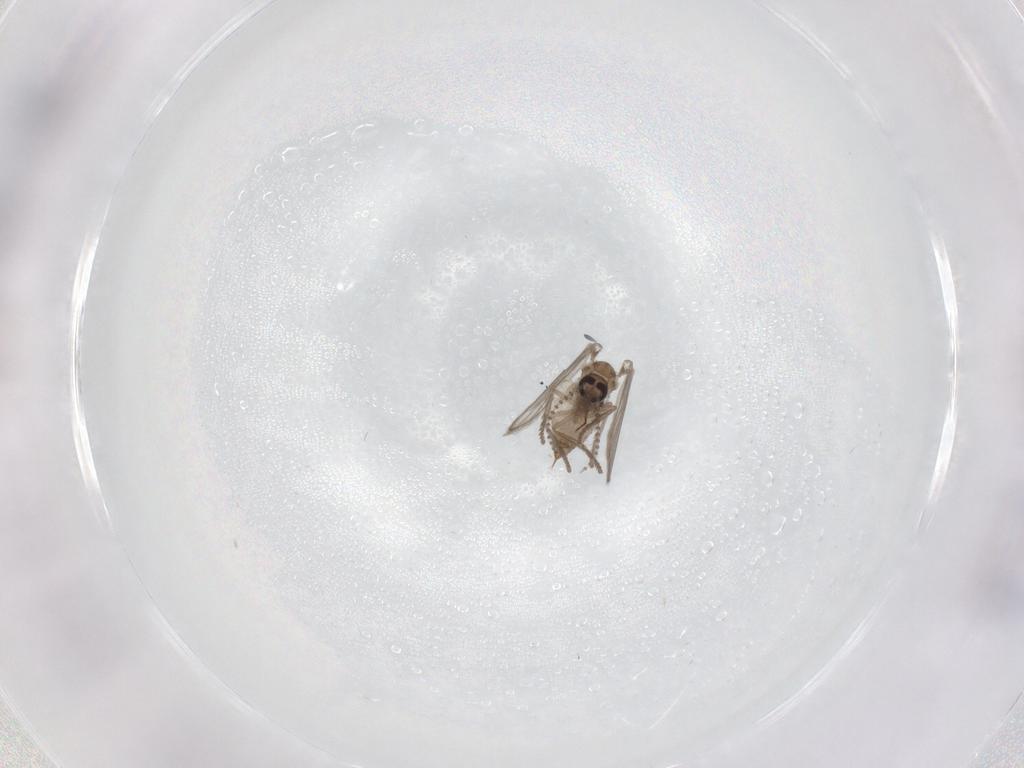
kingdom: Animalia
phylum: Arthropoda
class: Insecta
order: Diptera
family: Psychodidae
